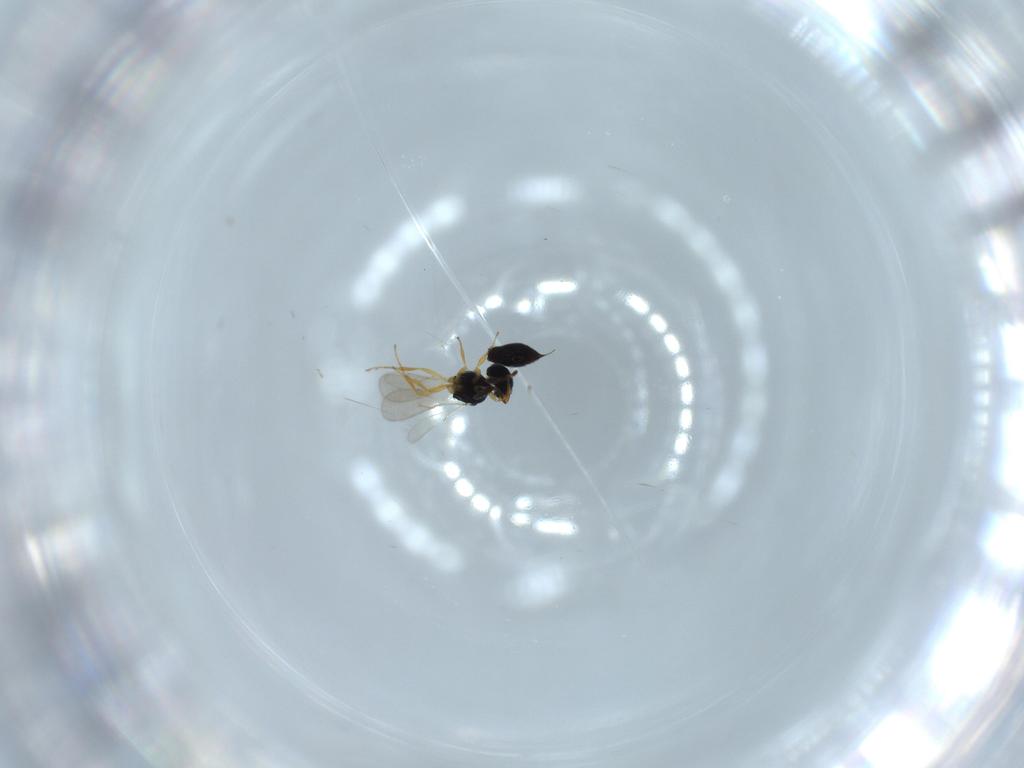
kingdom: Animalia
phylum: Arthropoda
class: Insecta
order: Hymenoptera
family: Scelionidae
